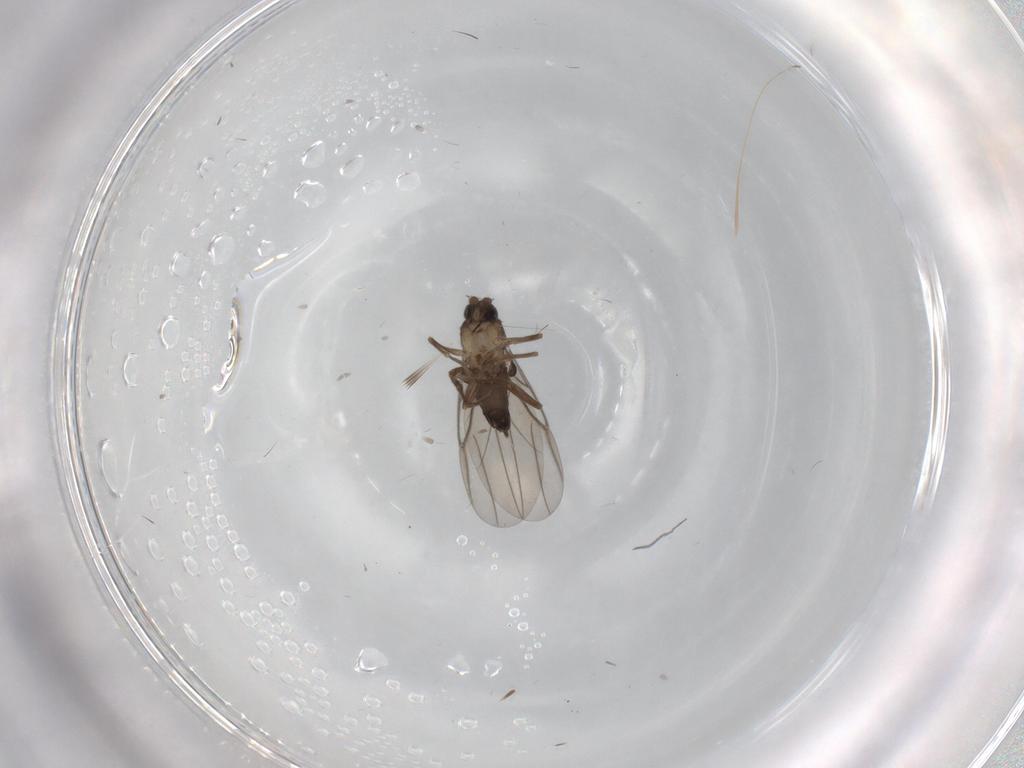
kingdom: Animalia
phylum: Arthropoda
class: Insecta
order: Diptera
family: Phoridae
